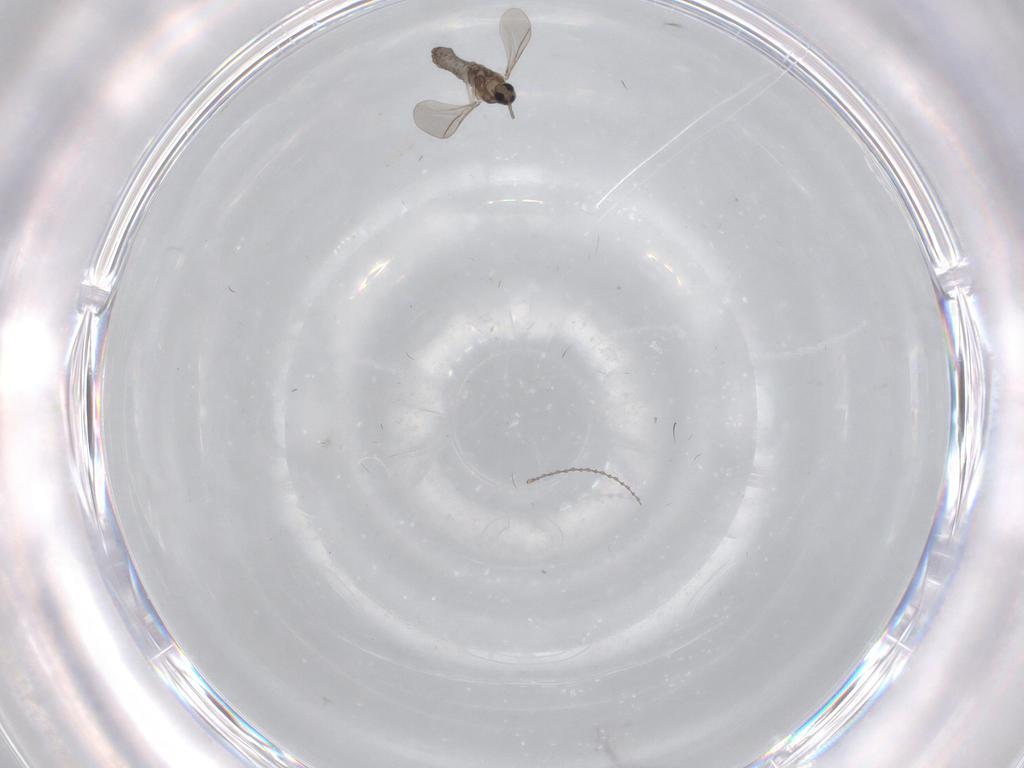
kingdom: Animalia
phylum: Arthropoda
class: Insecta
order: Diptera
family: Cecidomyiidae
